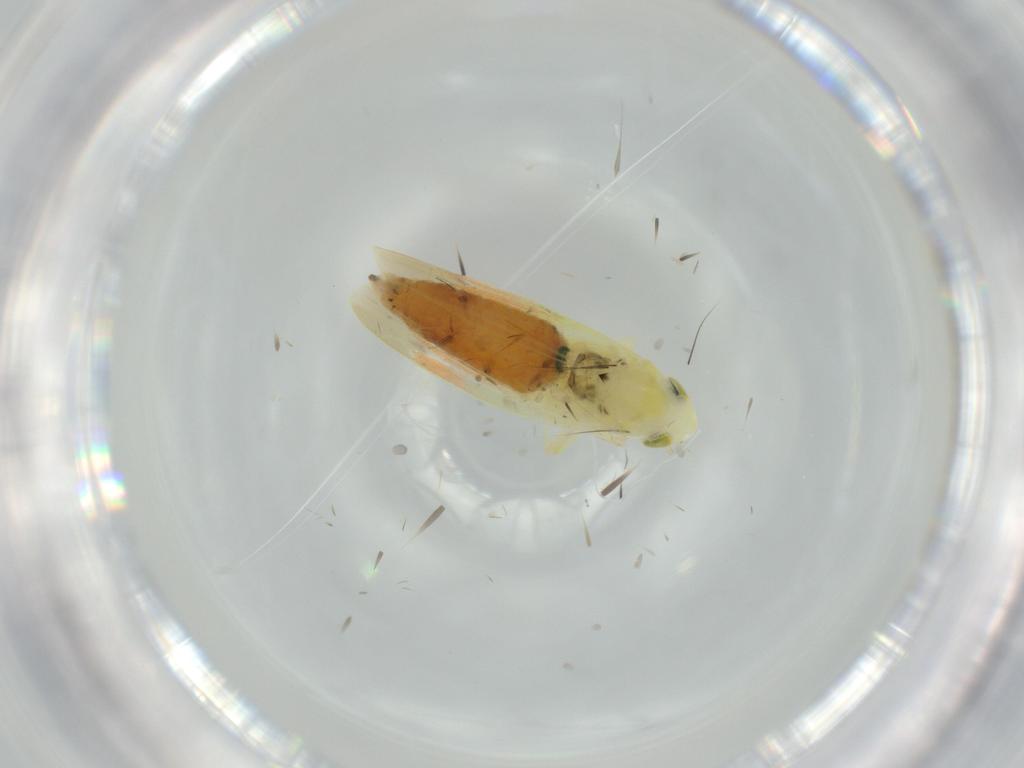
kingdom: Animalia
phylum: Arthropoda
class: Insecta
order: Hemiptera
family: Cicadellidae
